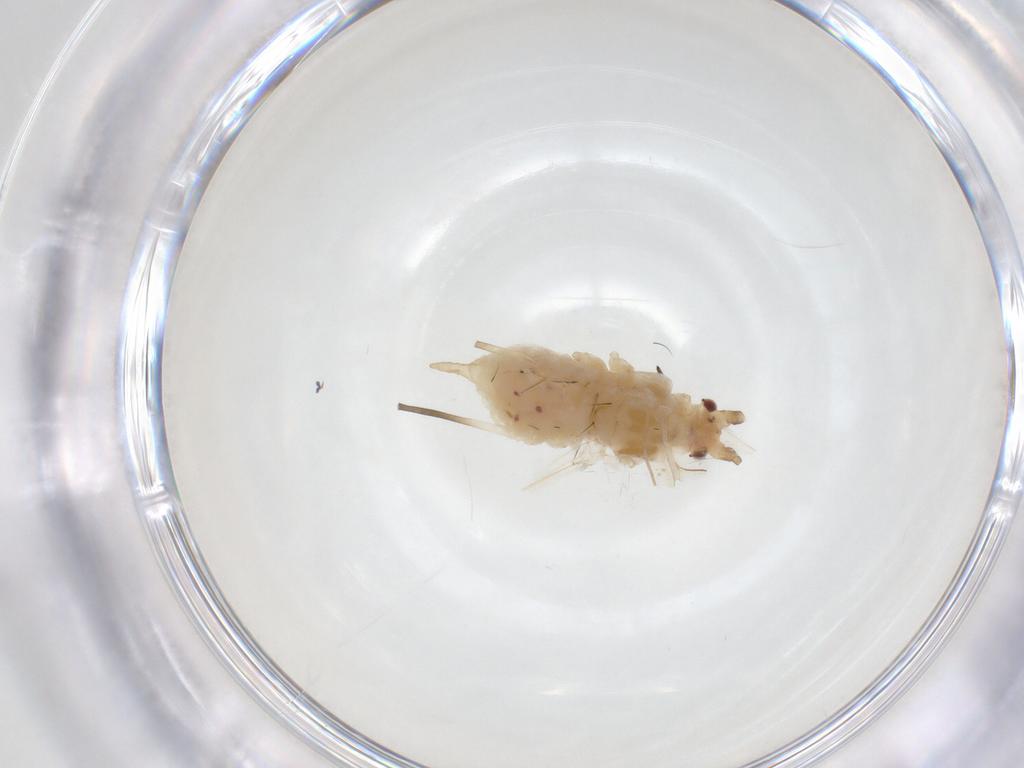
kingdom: Animalia
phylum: Arthropoda
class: Insecta
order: Hemiptera
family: Aphididae
